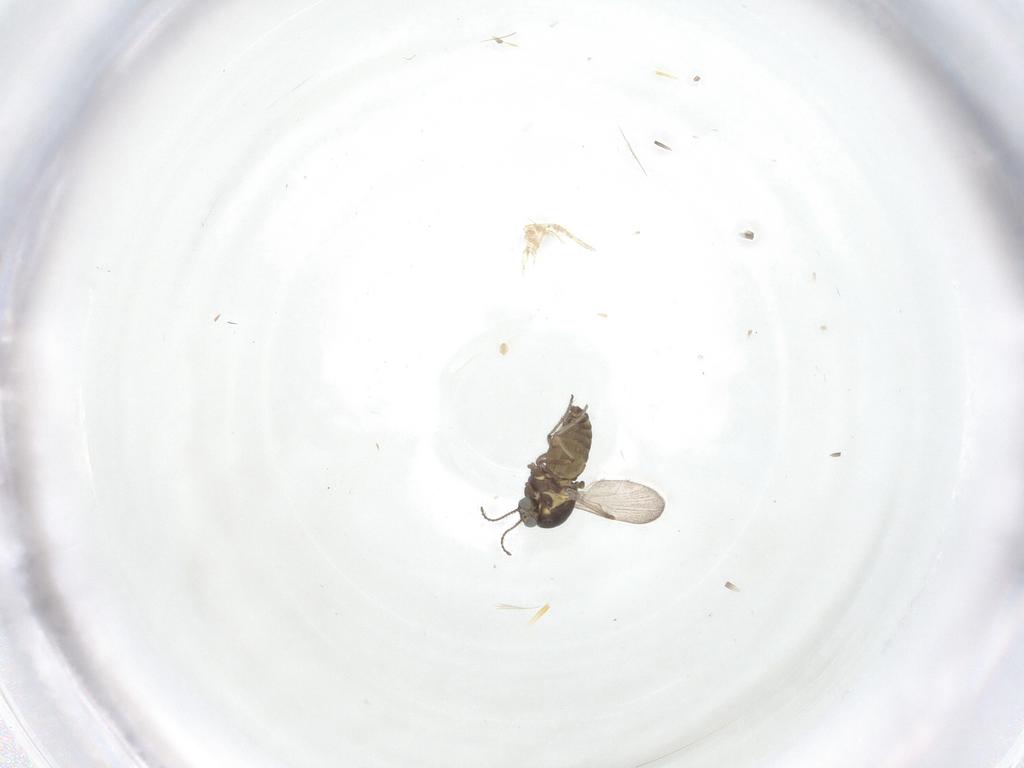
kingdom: Animalia
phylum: Arthropoda
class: Insecta
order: Diptera
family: Ceratopogonidae
